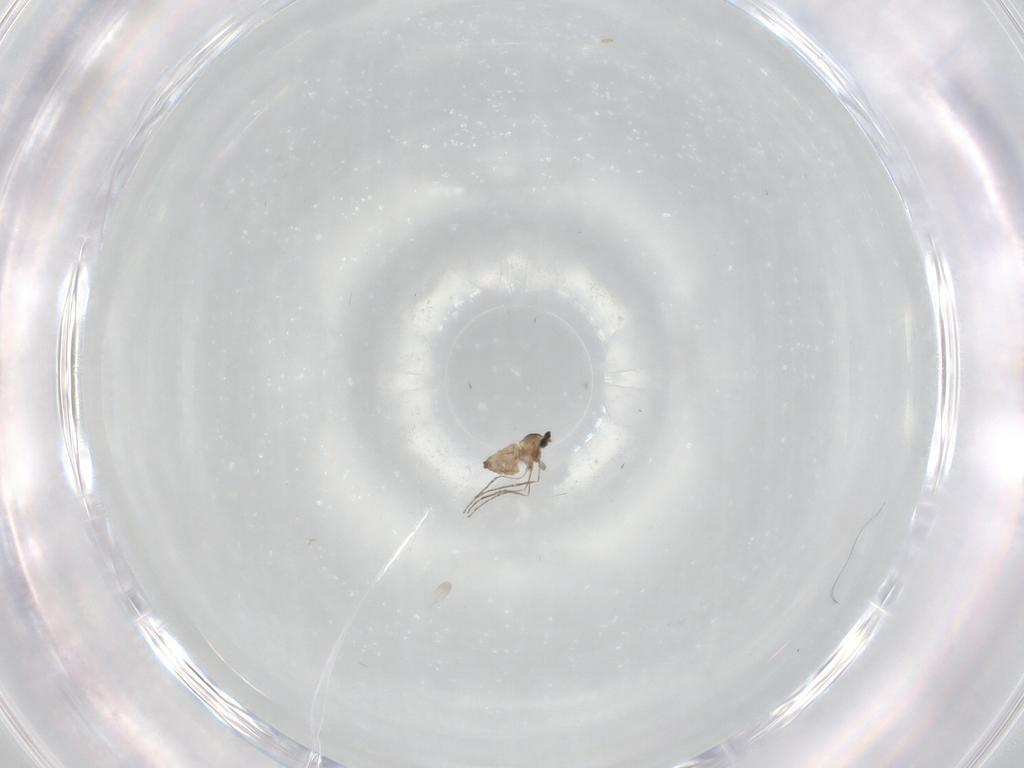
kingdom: Animalia
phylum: Arthropoda
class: Insecta
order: Diptera
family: Cecidomyiidae
